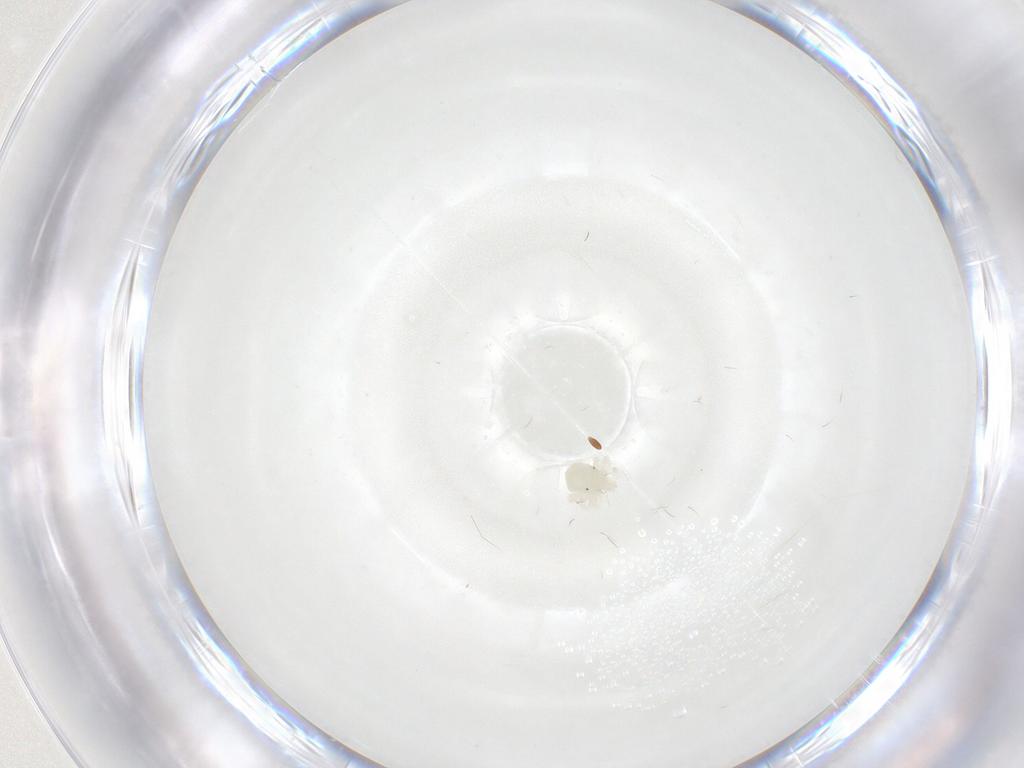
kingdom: Animalia
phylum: Arthropoda
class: Arachnida
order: Trombidiformes
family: Anystidae
